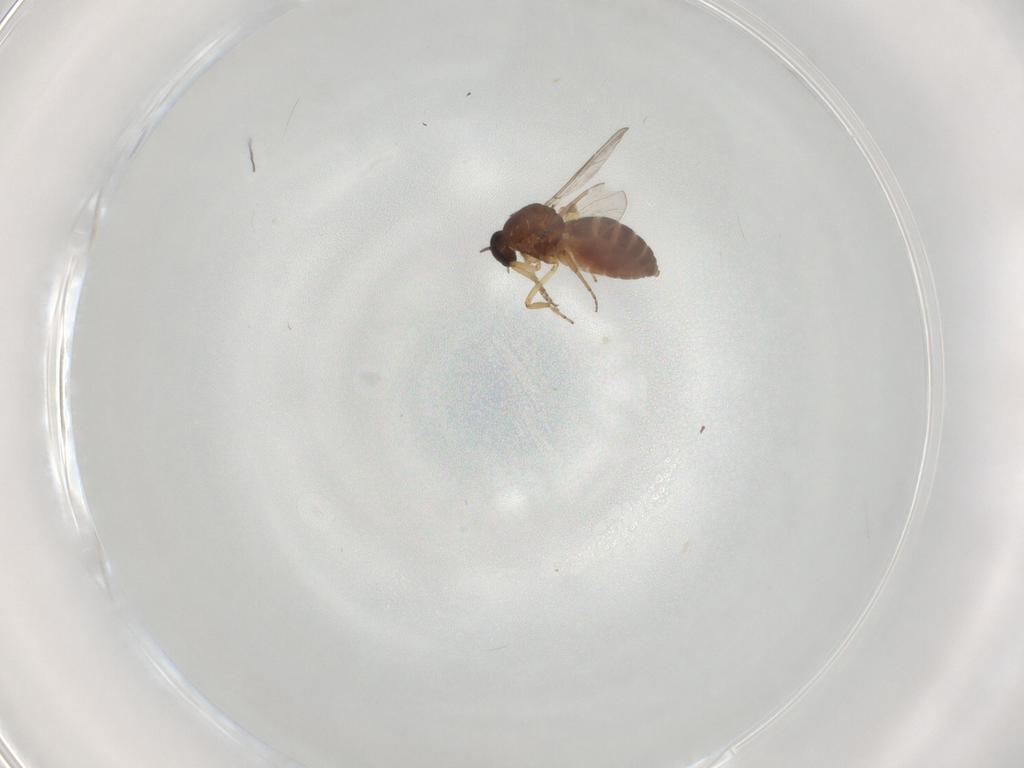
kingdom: Animalia
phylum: Arthropoda
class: Insecta
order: Diptera
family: Ceratopogonidae
